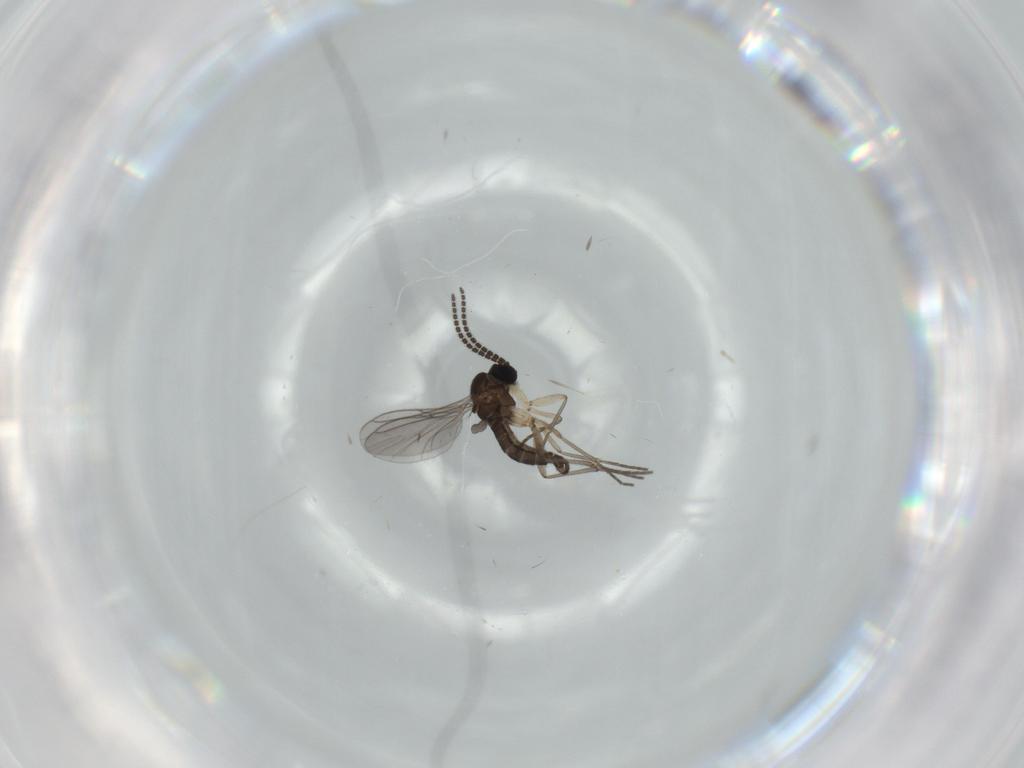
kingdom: Animalia
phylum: Arthropoda
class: Insecta
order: Diptera
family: Sciaridae
